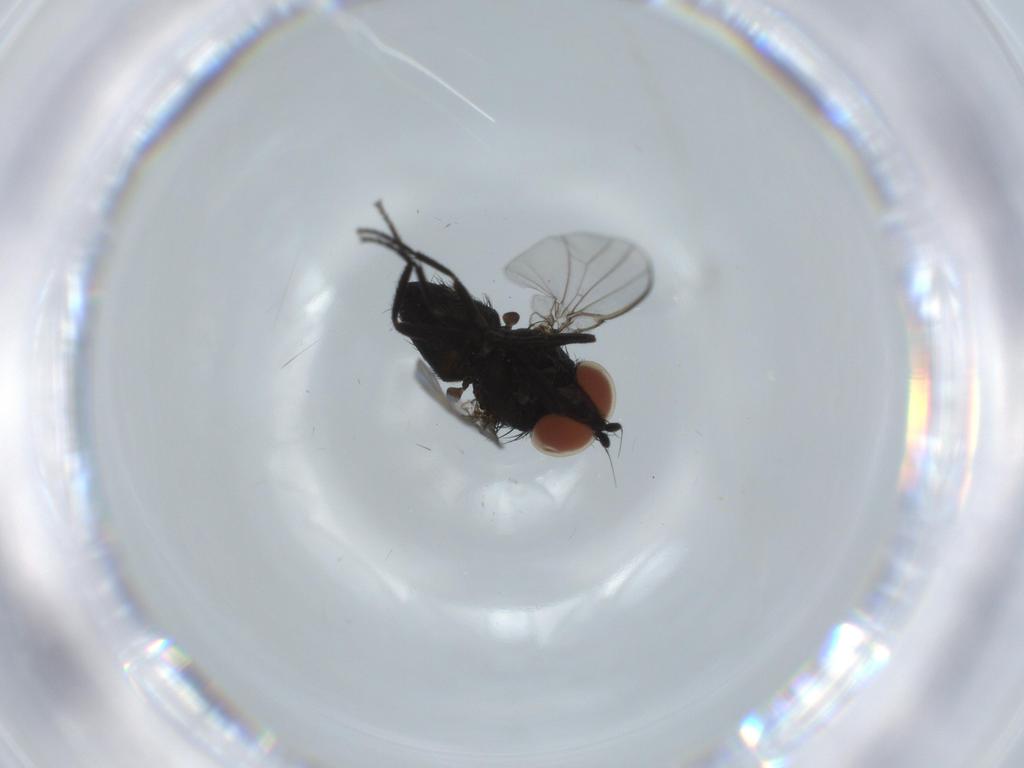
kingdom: Animalia
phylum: Arthropoda
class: Insecta
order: Diptera
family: Milichiidae
